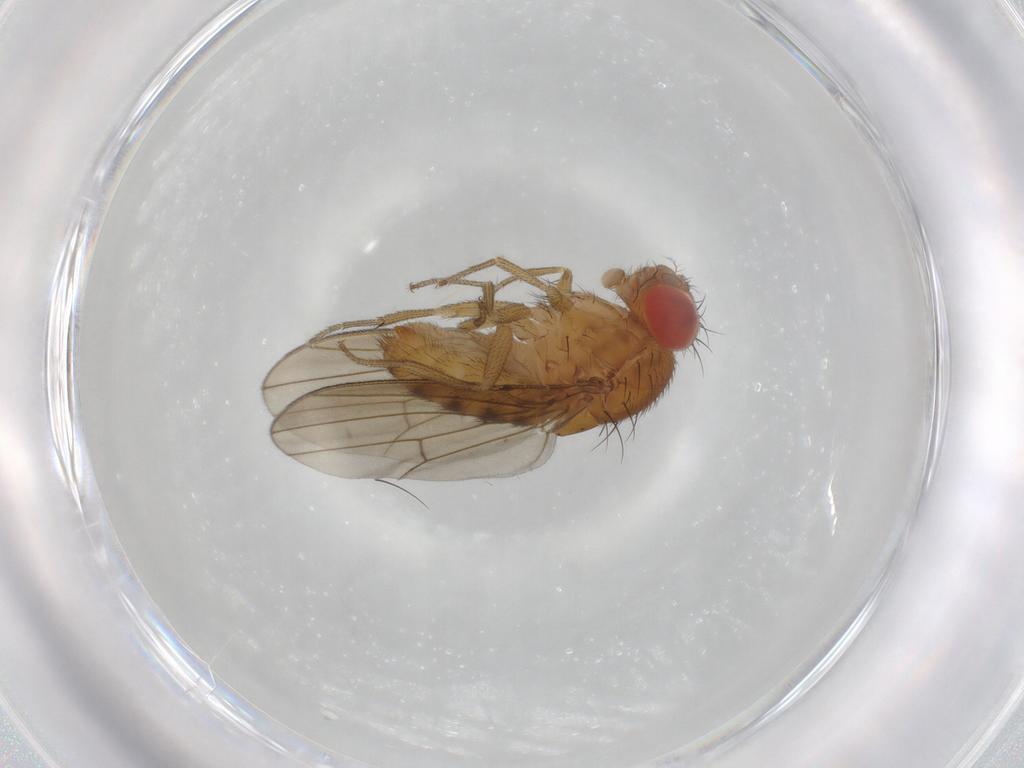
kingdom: Animalia
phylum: Arthropoda
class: Insecta
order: Diptera
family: Drosophilidae
